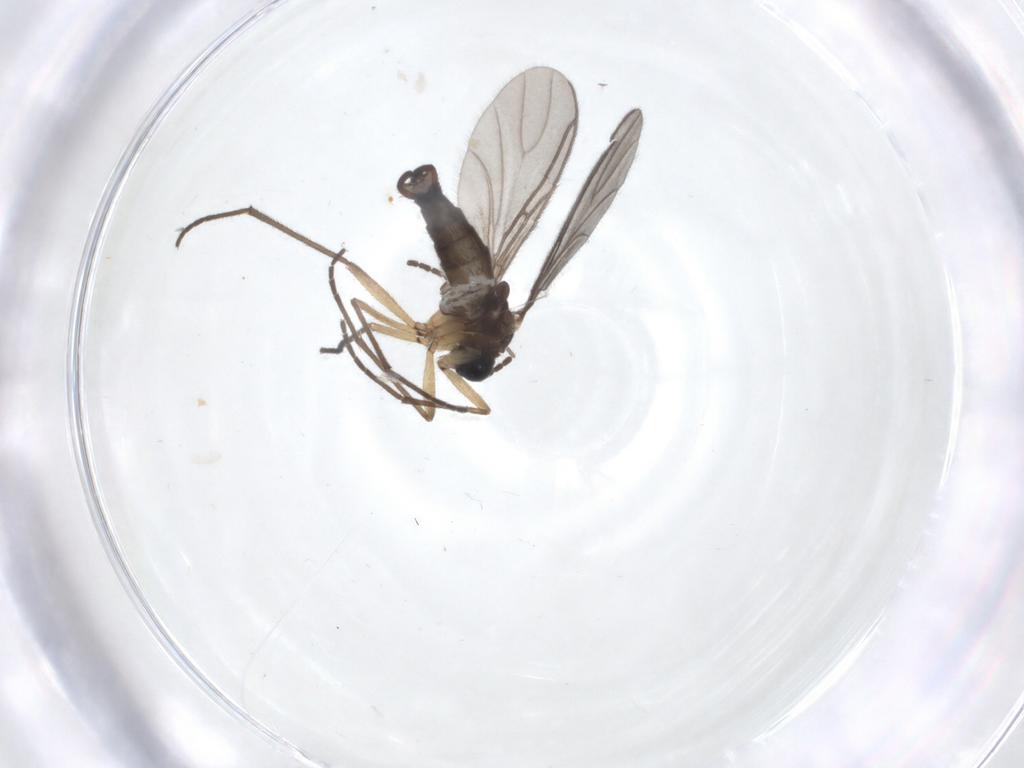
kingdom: Animalia
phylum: Arthropoda
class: Insecta
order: Diptera
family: Sciaridae
